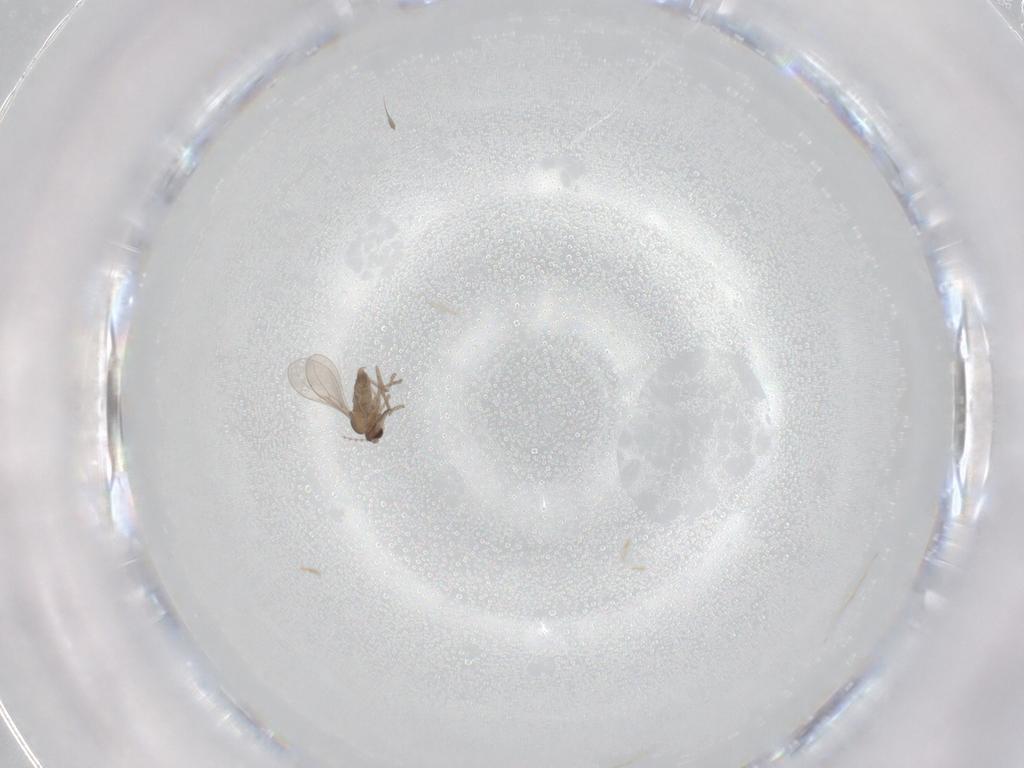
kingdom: Animalia
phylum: Arthropoda
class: Insecta
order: Diptera
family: Cecidomyiidae
